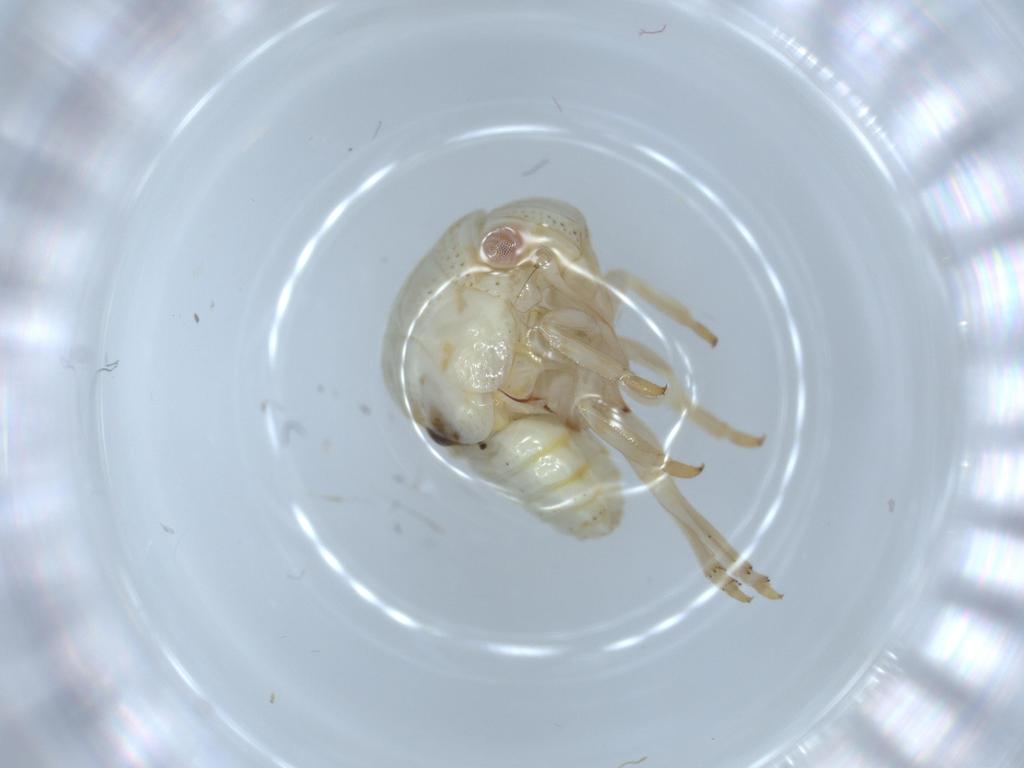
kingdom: Animalia
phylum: Arthropoda
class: Insecta
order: Hemiptera
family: Acanaloniidae
